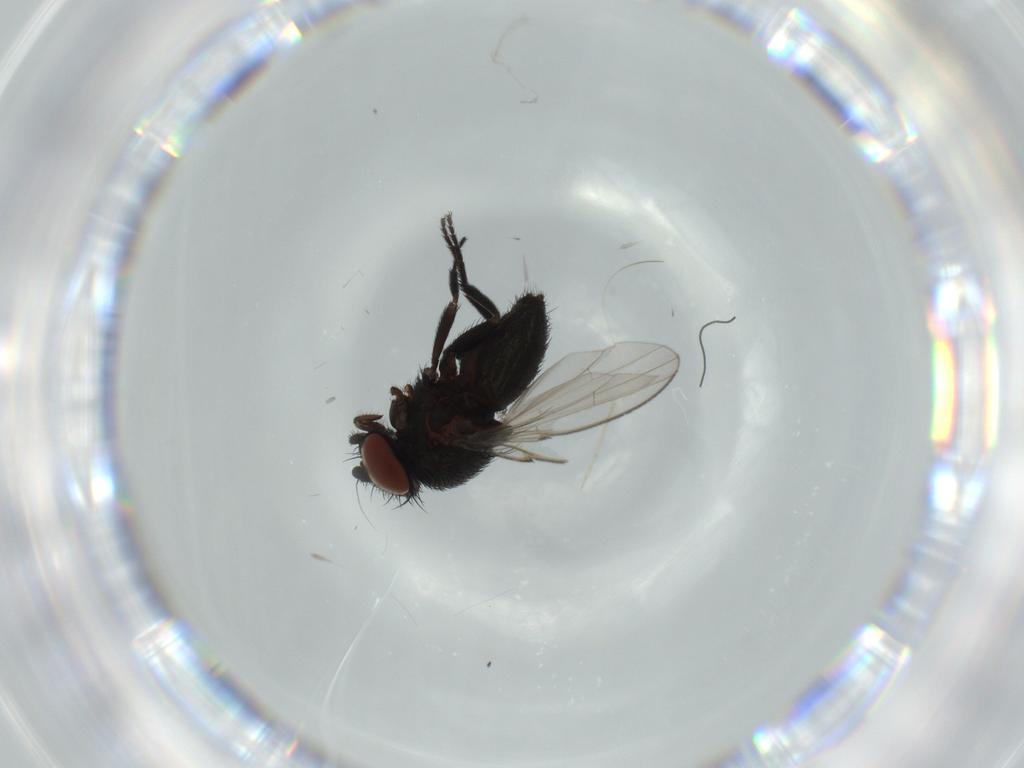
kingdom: Animalia
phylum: Arthropoda
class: Insecta
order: Diptera
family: Milichiidae
